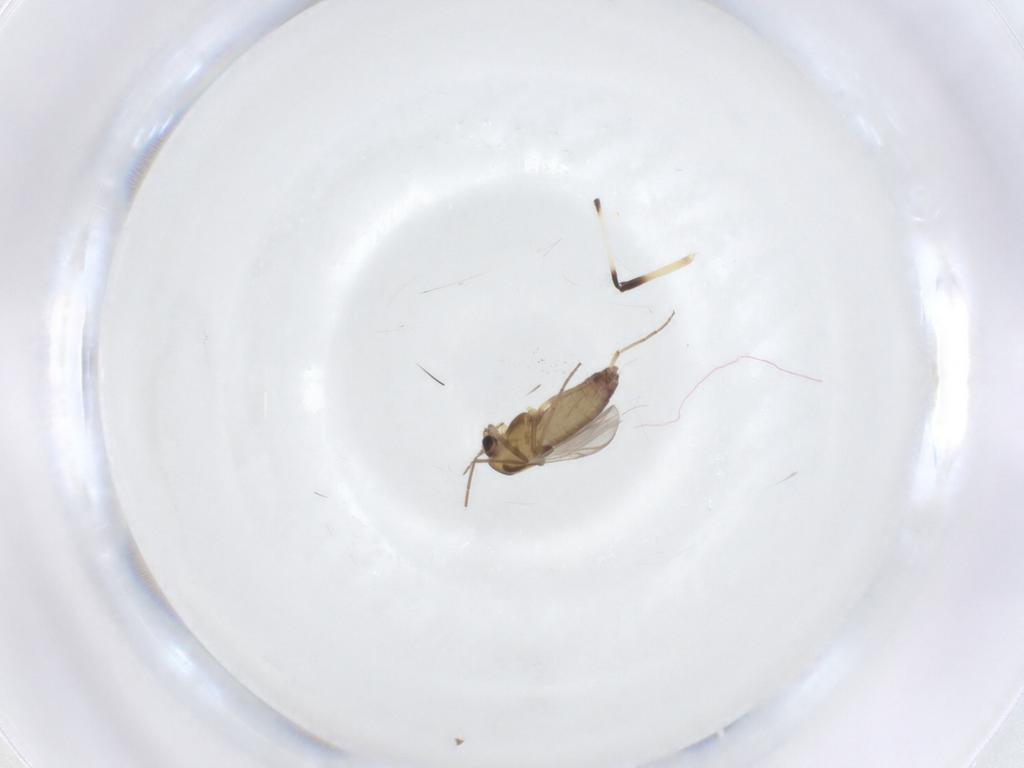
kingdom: Animalia
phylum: Arthropoda
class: Insecta
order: Diptera
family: Chironomidae
